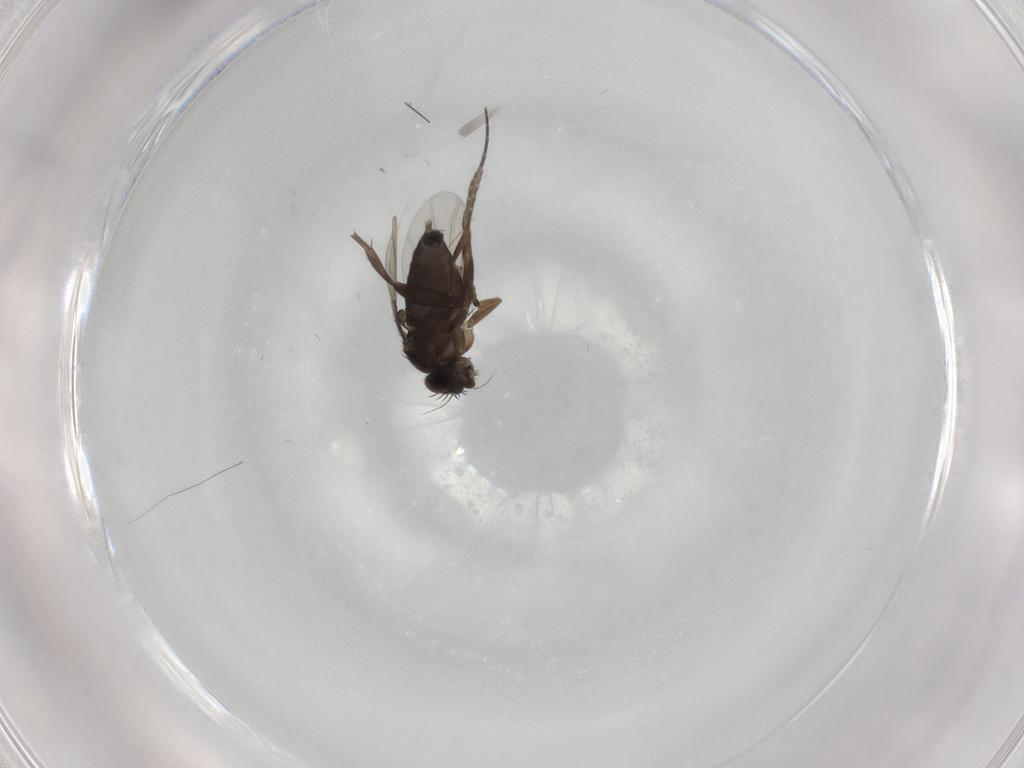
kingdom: Animalia
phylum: Arthropoda
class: Insecta
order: Diptera
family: Phoridae
